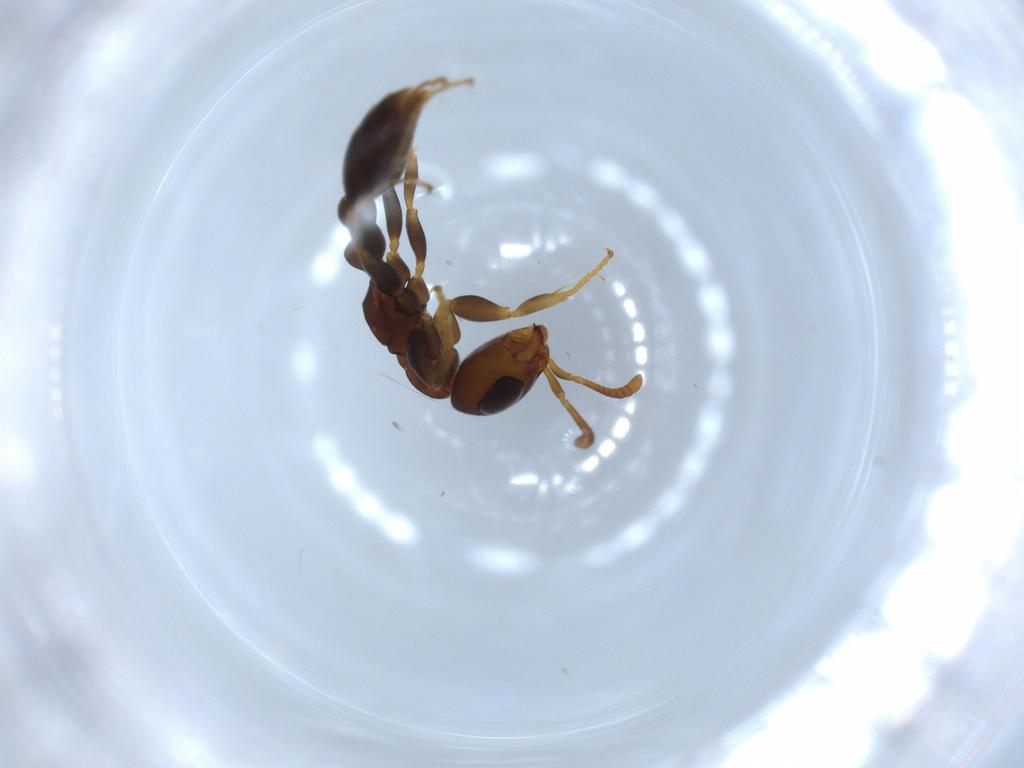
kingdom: Animalia
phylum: Arthropoda
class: Insecta
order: Hymenoptera
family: Formicidae
